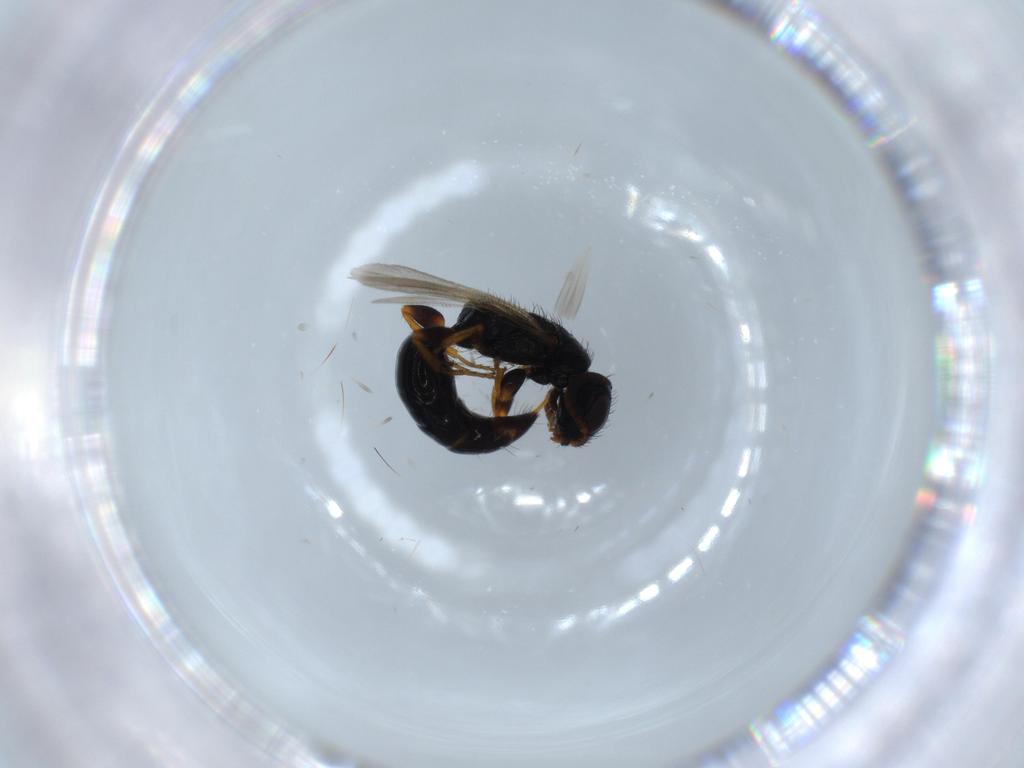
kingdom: Animalia
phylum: Arthropoda
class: Insecta
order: Hymenoptera
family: Bethylidae
